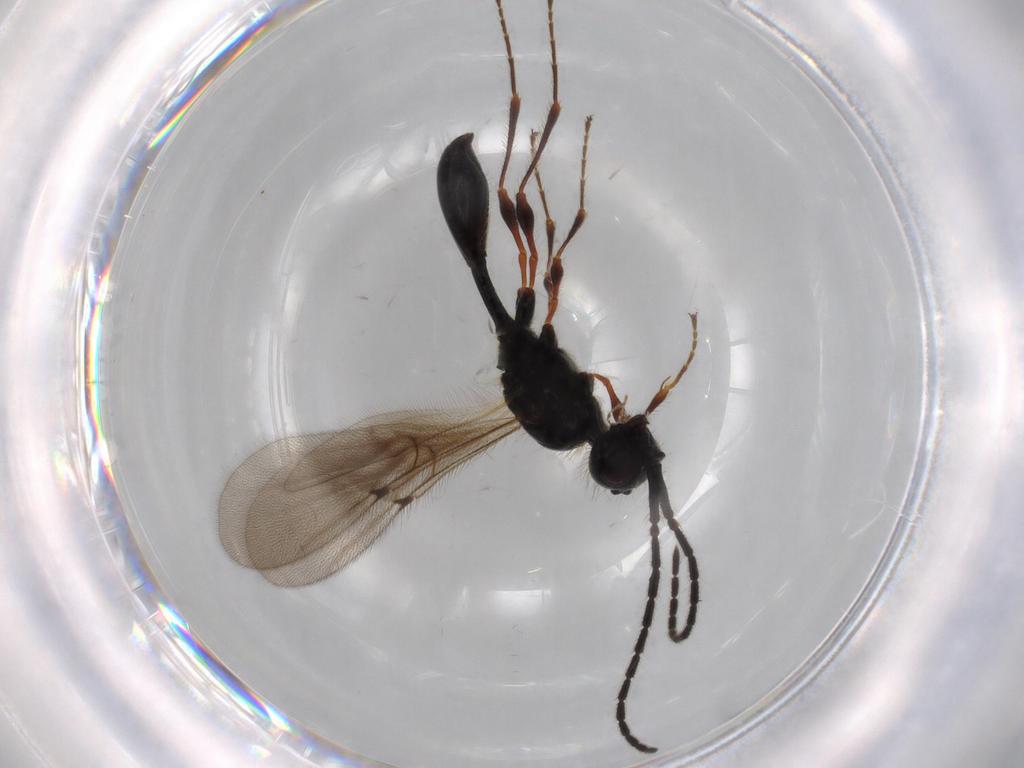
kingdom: Animalia
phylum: Arthropoda
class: Insecta
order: Hymenoptera
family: Diapriidae
